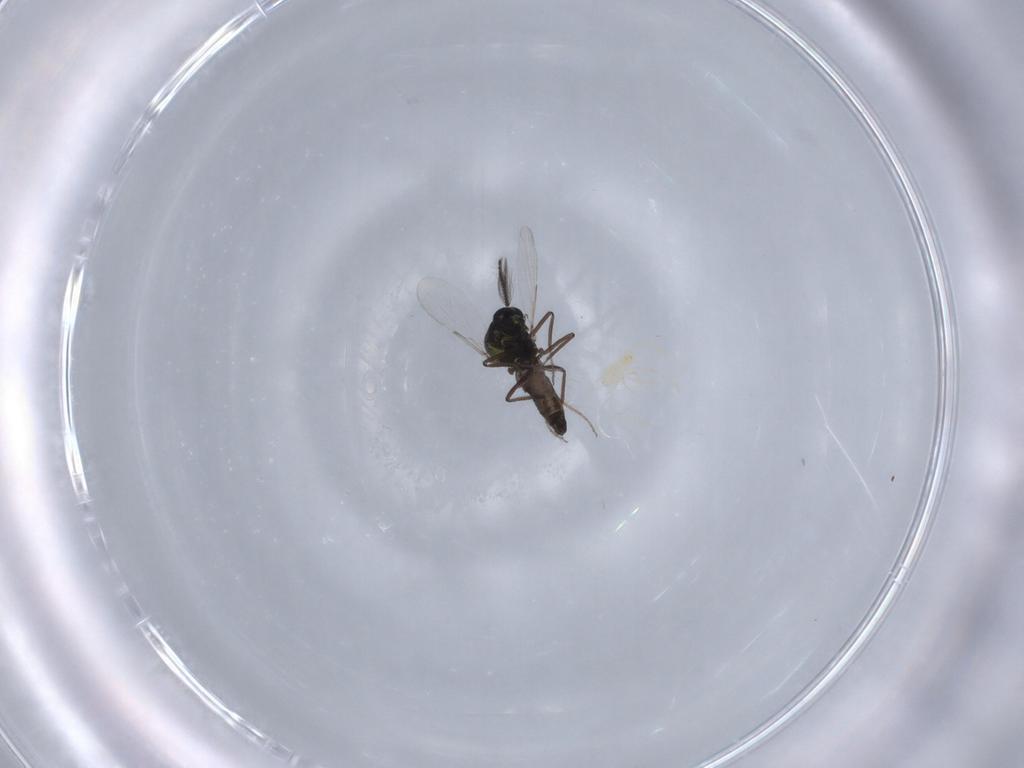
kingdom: Animalia
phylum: Arthropoda
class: Insecta
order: Diptera
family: Ceratopogonidae
